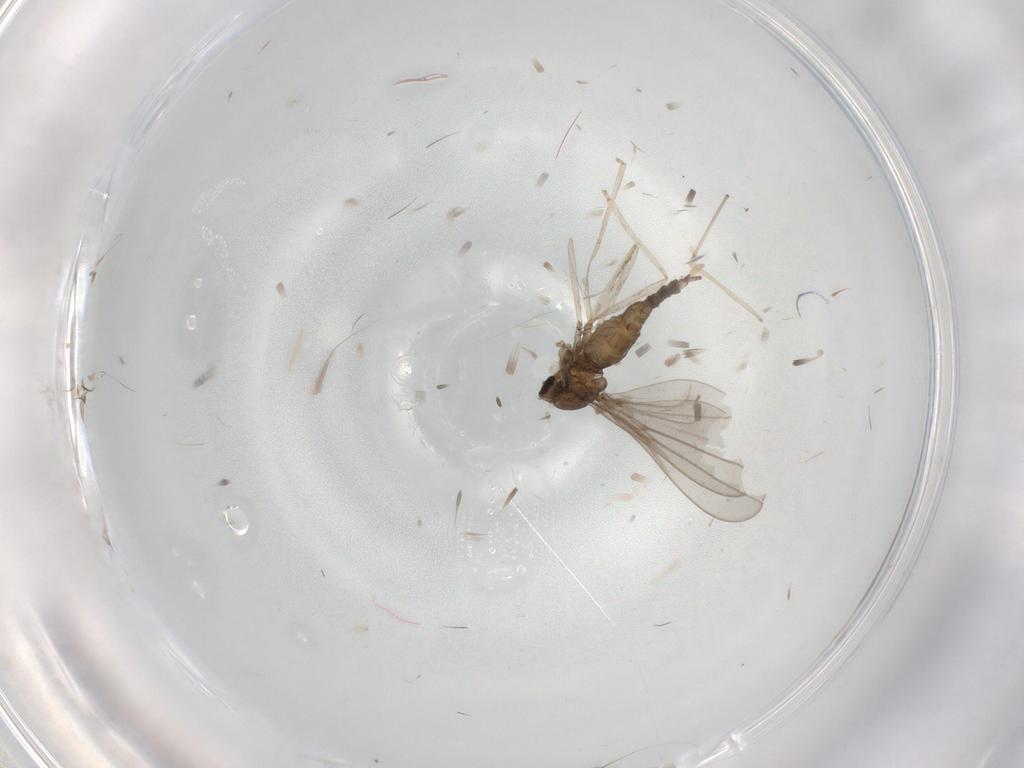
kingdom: Animalia
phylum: Arthropoda
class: Insecta
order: Diptera
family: Cecidomyiidae
